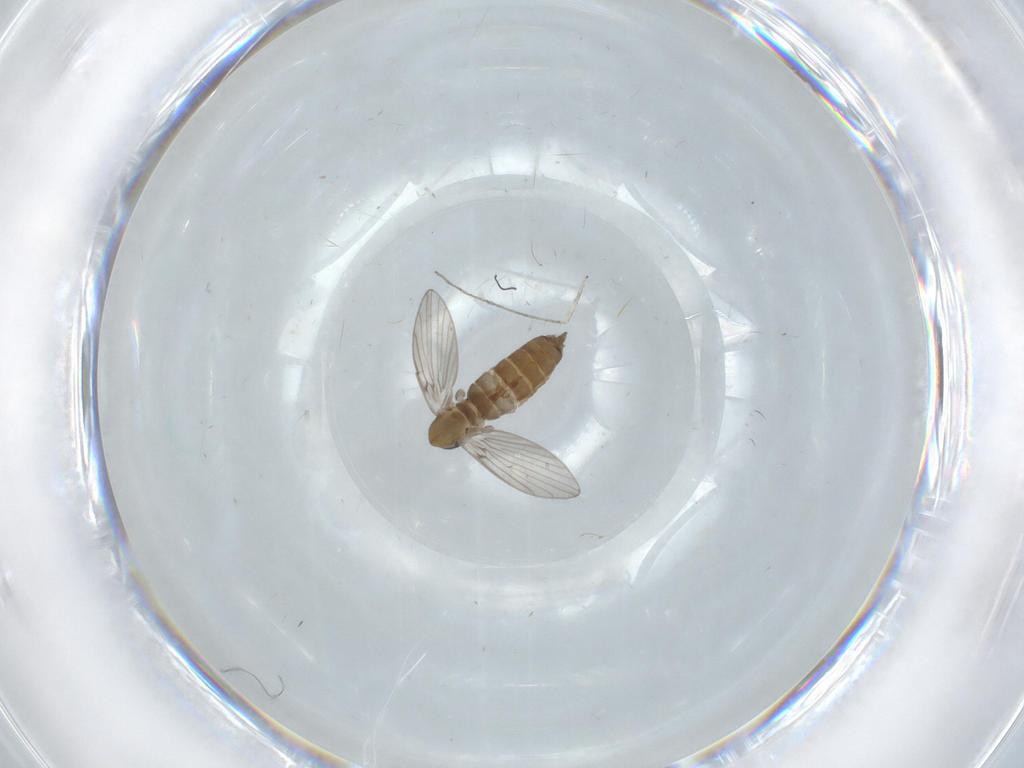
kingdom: Animalia
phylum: Arthropoda
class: Insecta
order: Diptera
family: Psychodidae
